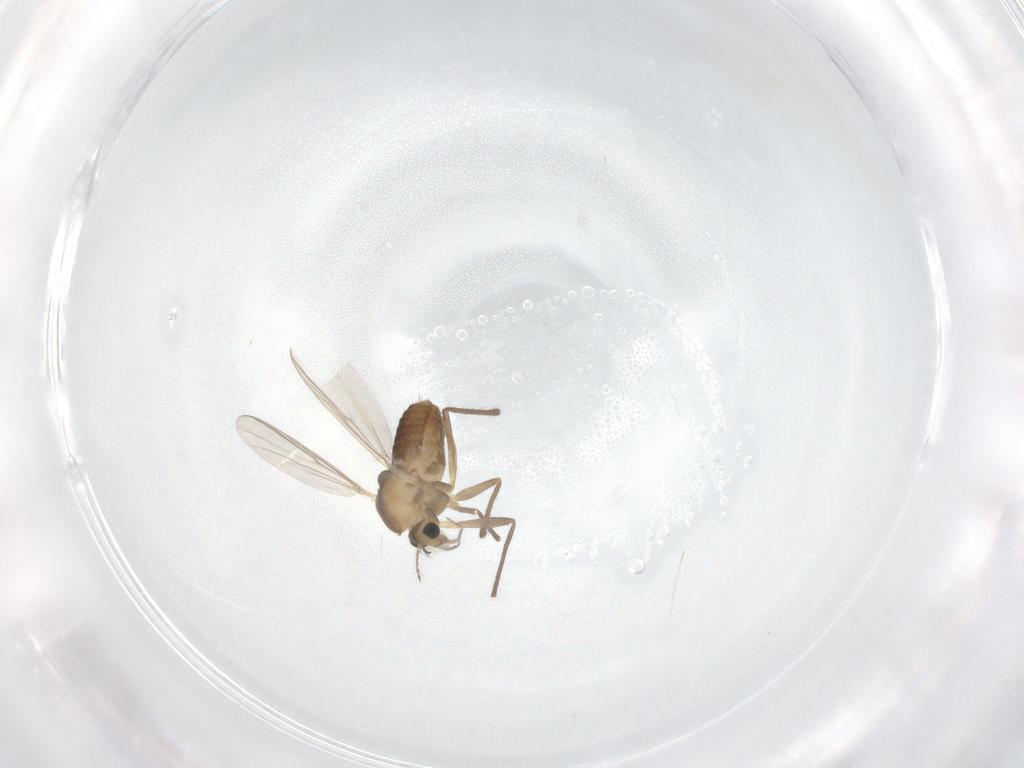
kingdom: Animalia
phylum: Arthropoda
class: Insecta
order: Diptera
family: Chironomidae
